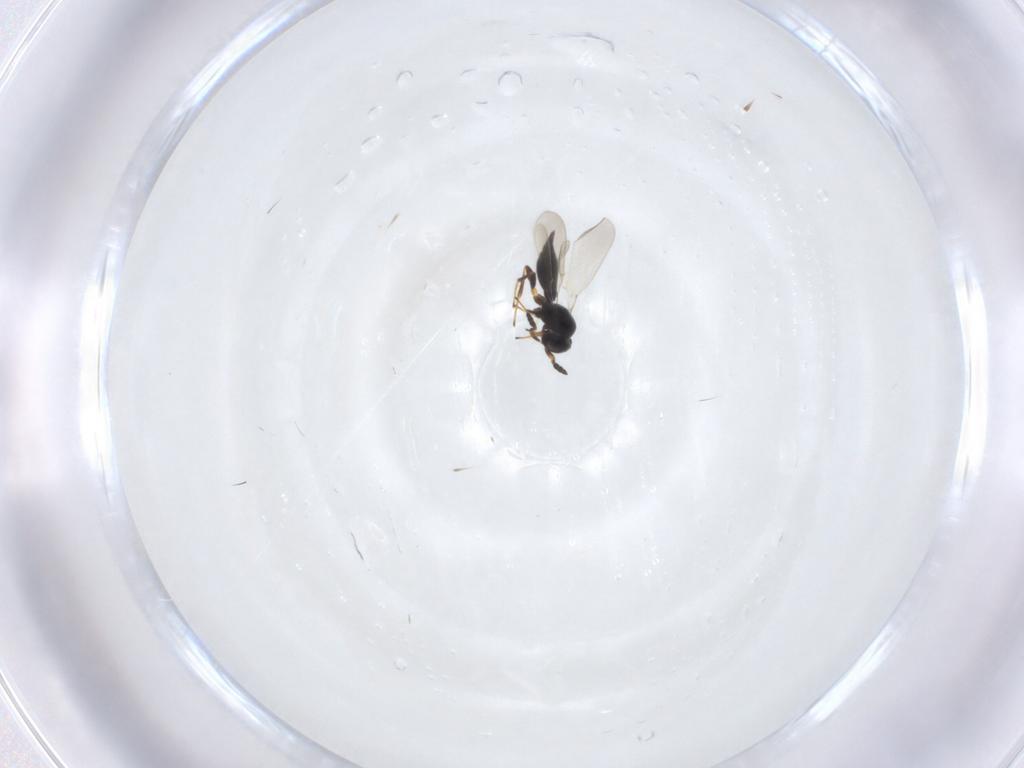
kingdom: Animalia
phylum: Arthropoda
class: Insecta
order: Hymenoptera
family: Platygastridae
